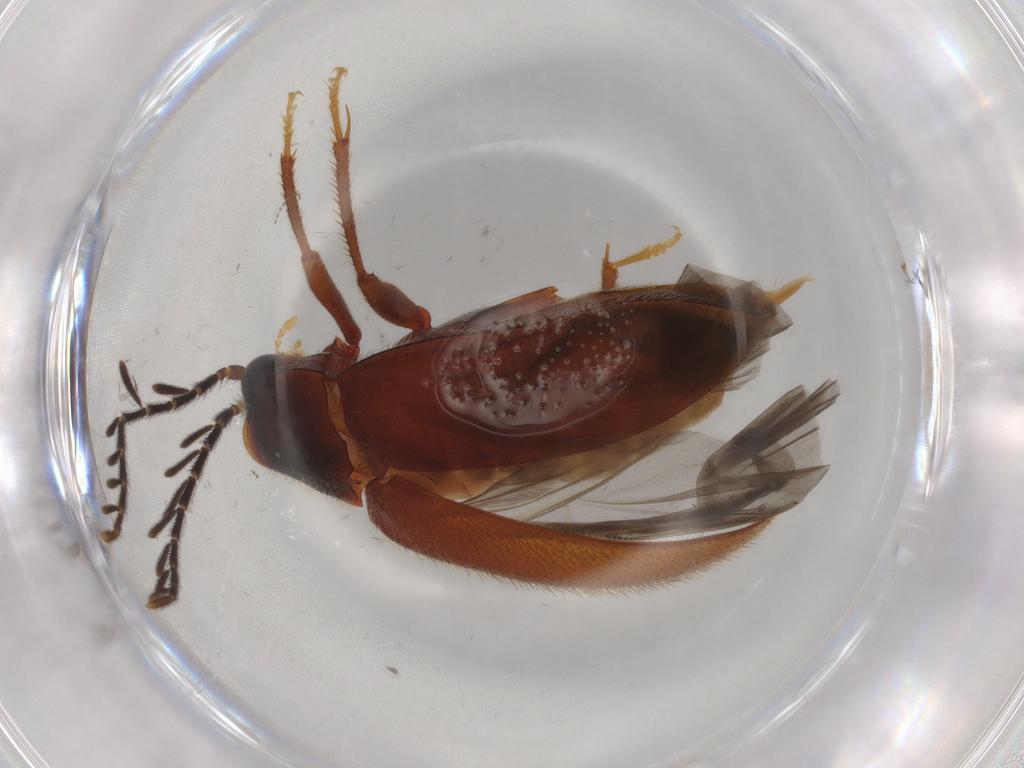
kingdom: Animalia
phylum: Arthropoda
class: Insecta
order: Coleoptera
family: Ptilodactylidae
